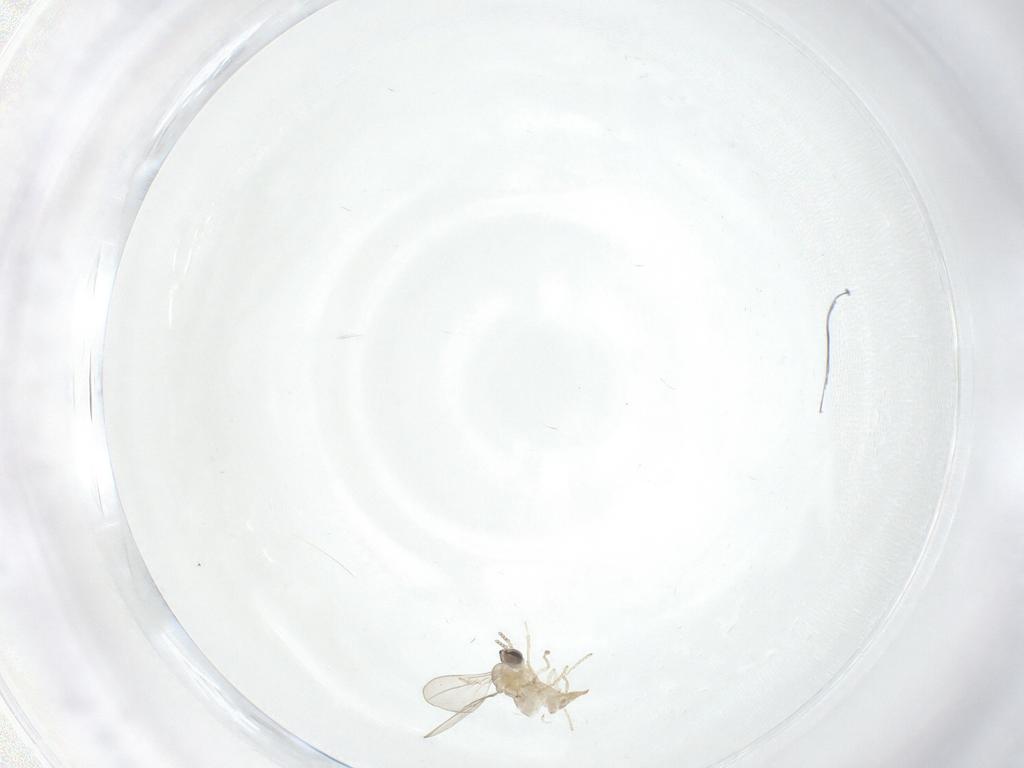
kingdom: Animalia
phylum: Arthropoda
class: Insecta
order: Diptera
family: Cecidomyiidae
